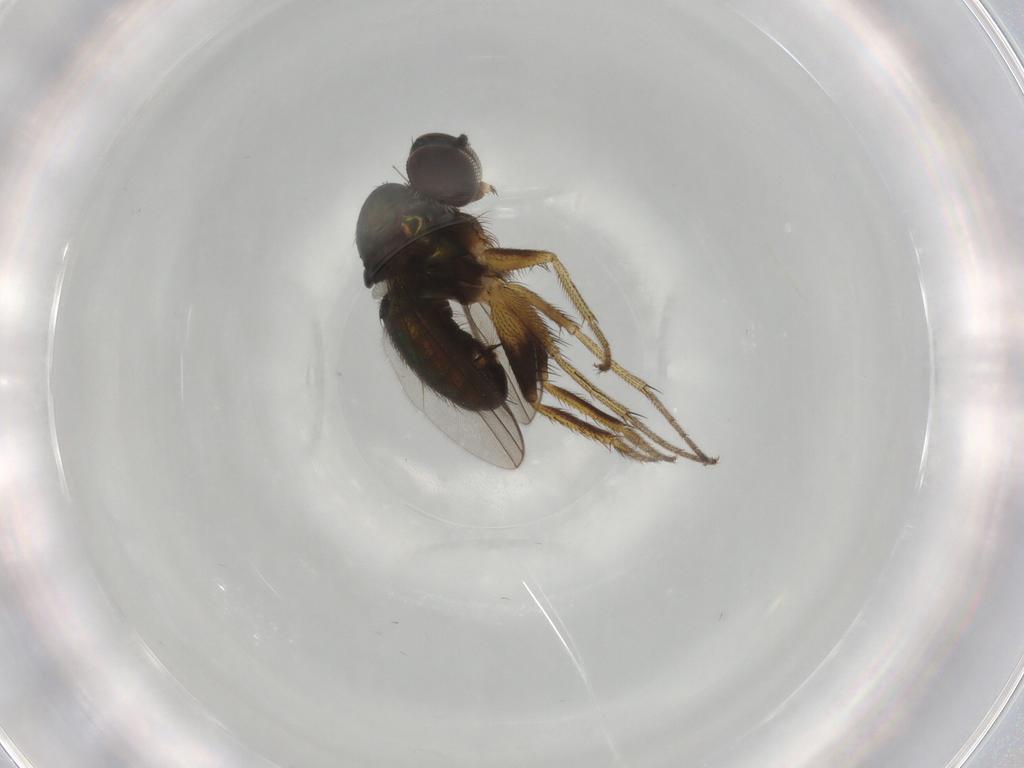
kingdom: Animalia
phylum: Arthropoda
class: Insecta
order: Diptera
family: Dolichopodidae
